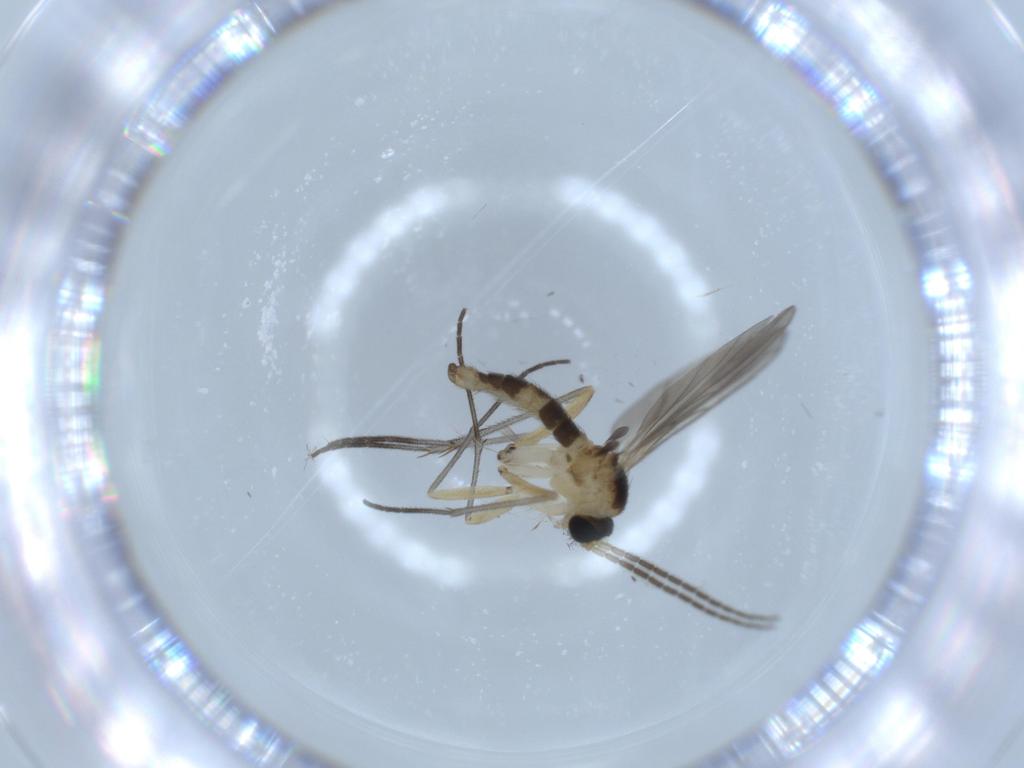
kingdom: Animalia
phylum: Arthropoda
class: Insecta
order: Diptera
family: Sciaridae
